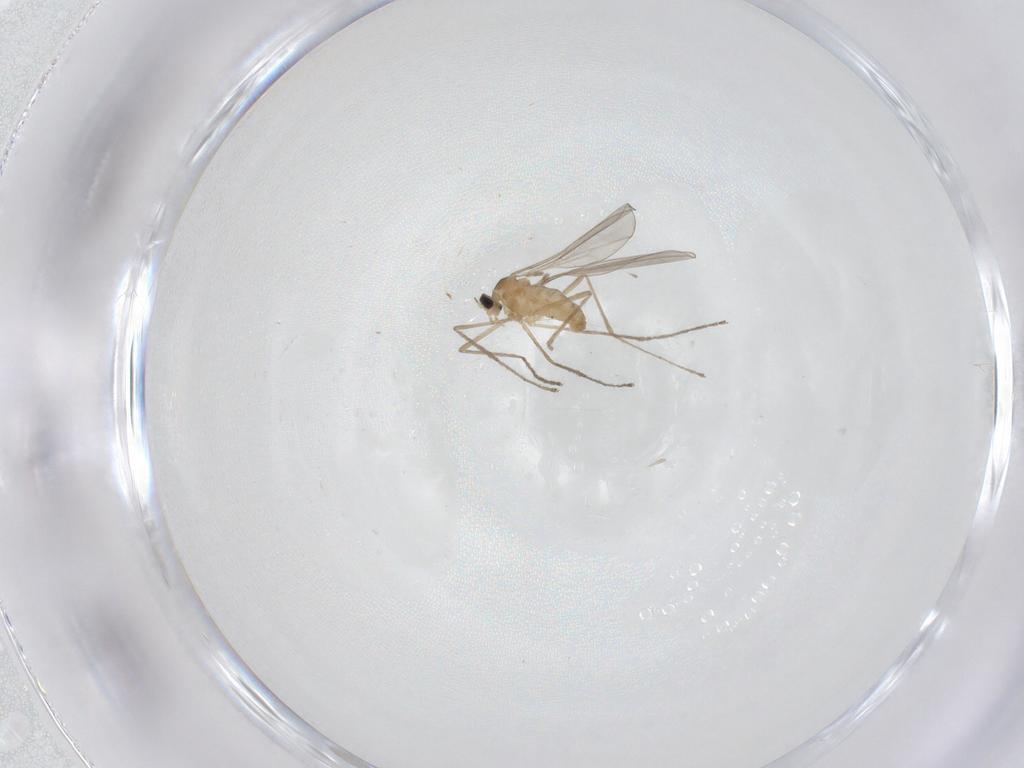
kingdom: Animalia
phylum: Arthropoda
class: Insecta
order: Diptera
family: Cecidomyiidae
